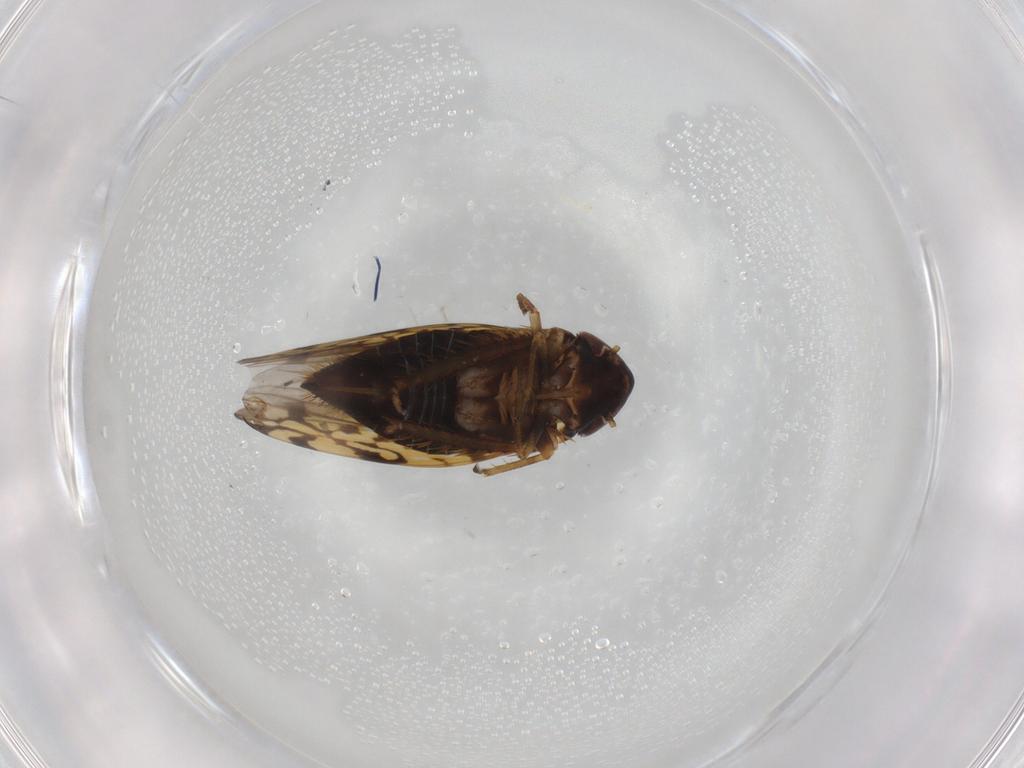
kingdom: Animalia
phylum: Arthropoda
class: Insecta
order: Hemiptera
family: Cicadellidae
